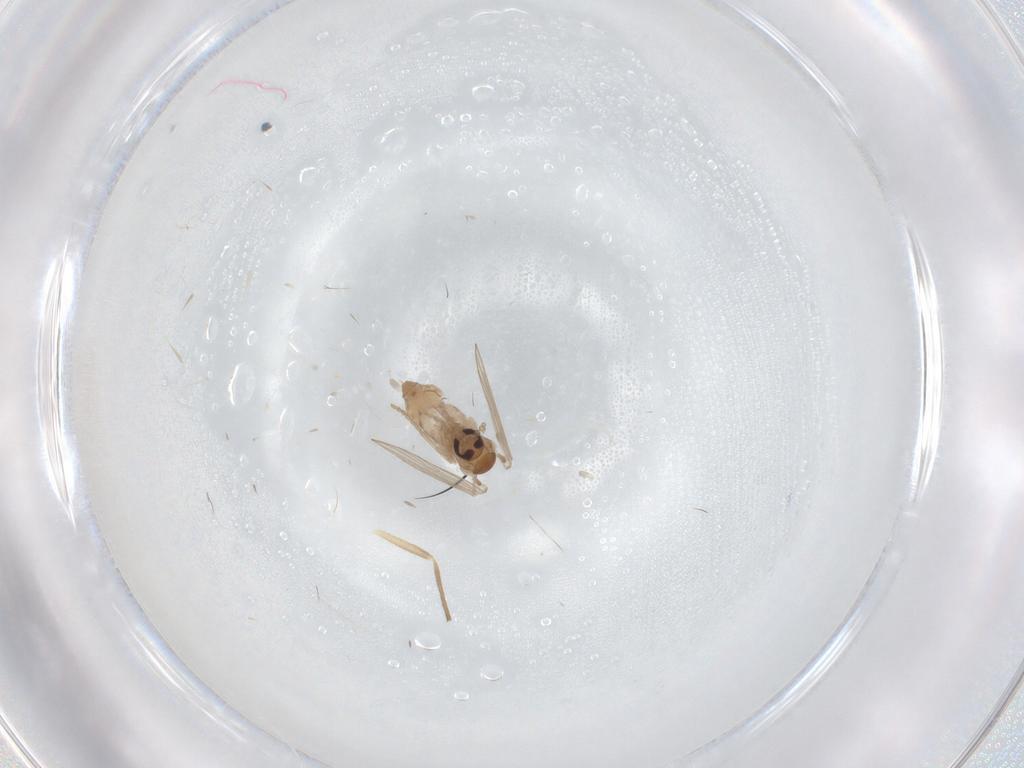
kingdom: Animalia
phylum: Arthropoda
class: Insecta
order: Diptera
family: Psychodidae
